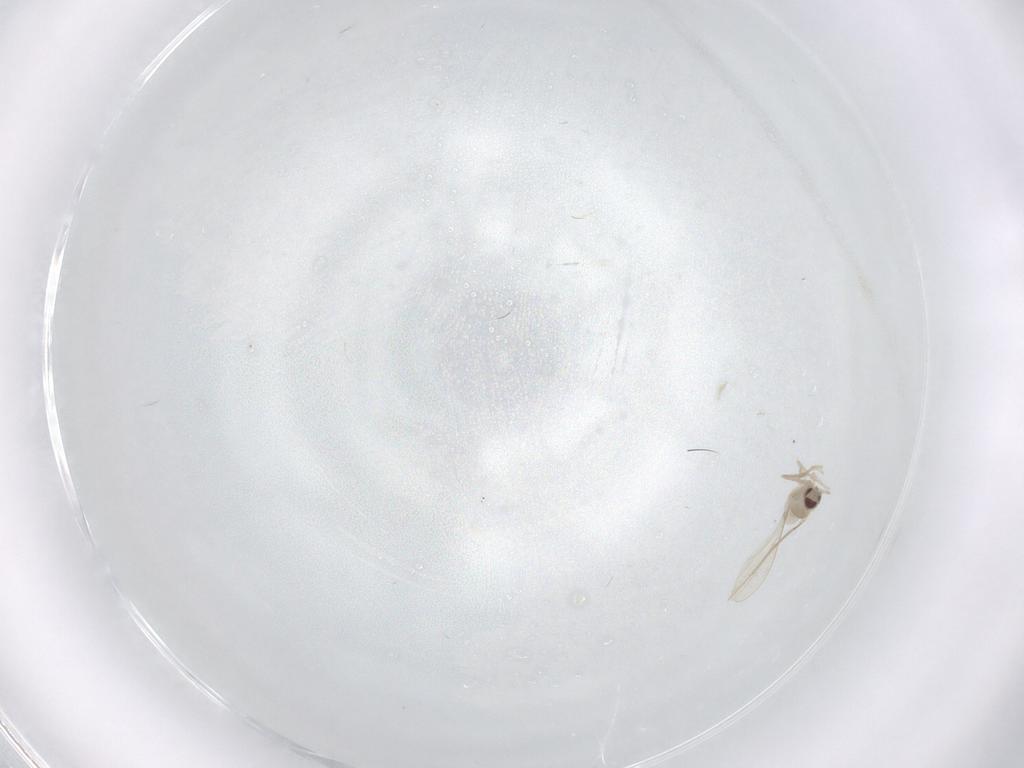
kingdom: Animalia
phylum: Arthropoda
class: Insecta
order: Diptera
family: Cecidomyiidae
